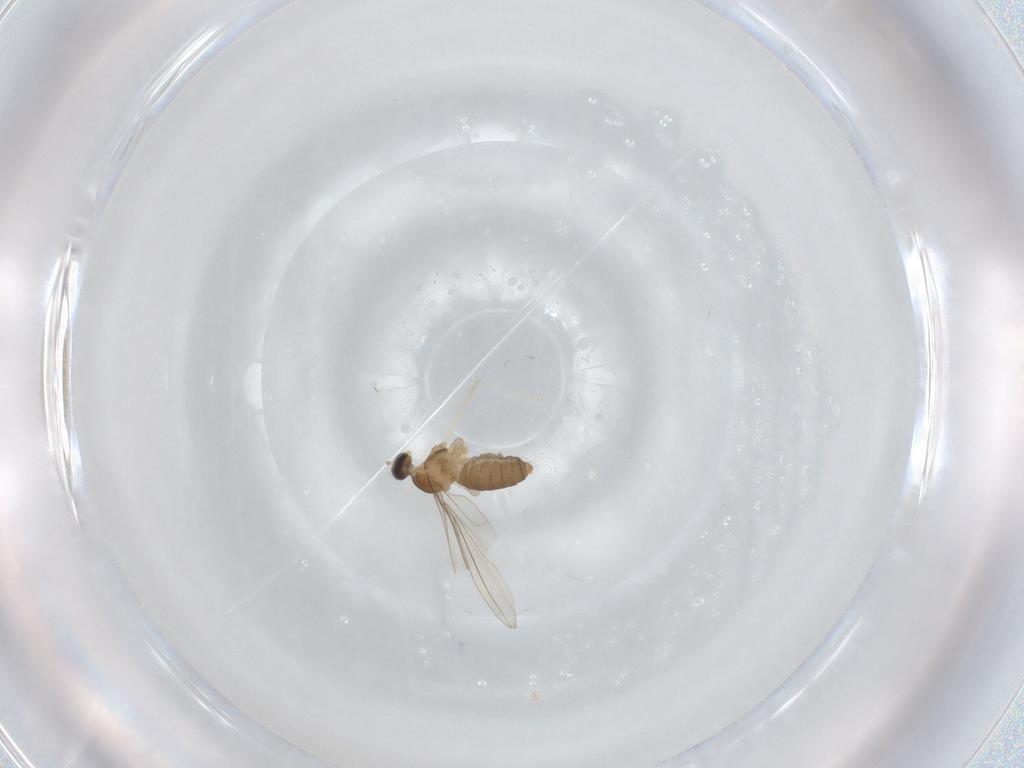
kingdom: Animalia
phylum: Arthropoda
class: Insecta
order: Diptera
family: Cecidomyiidae
